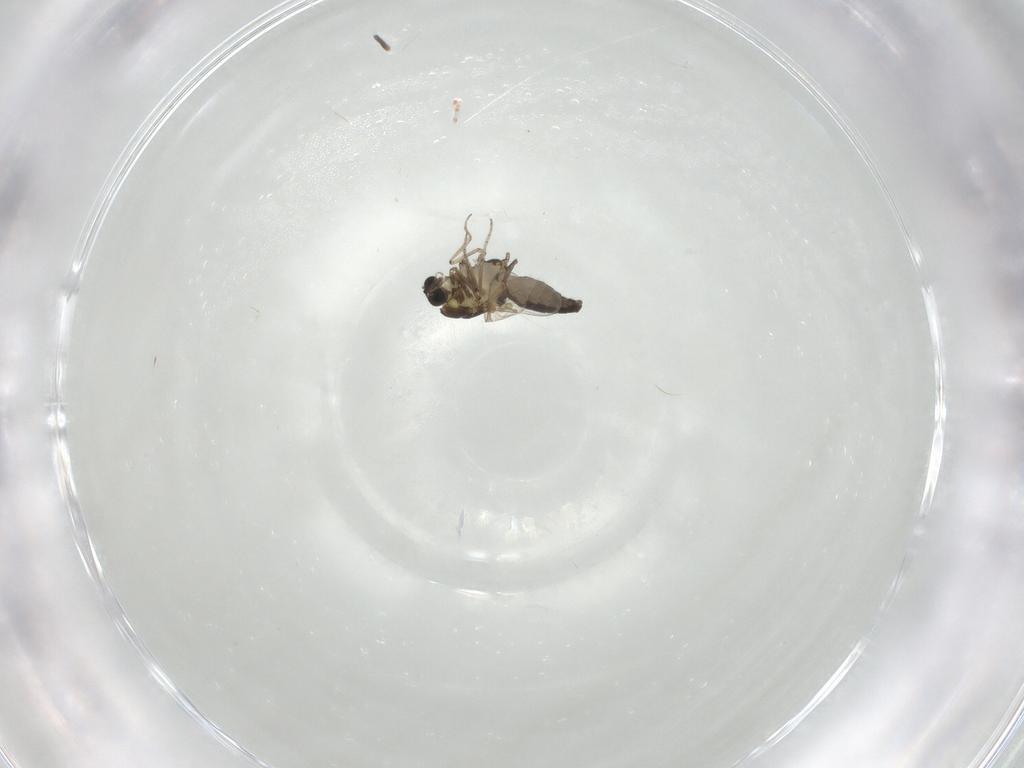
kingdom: Animalia
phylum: Arthropoda
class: Insecta
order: Diptera
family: Ceratopogonidae
